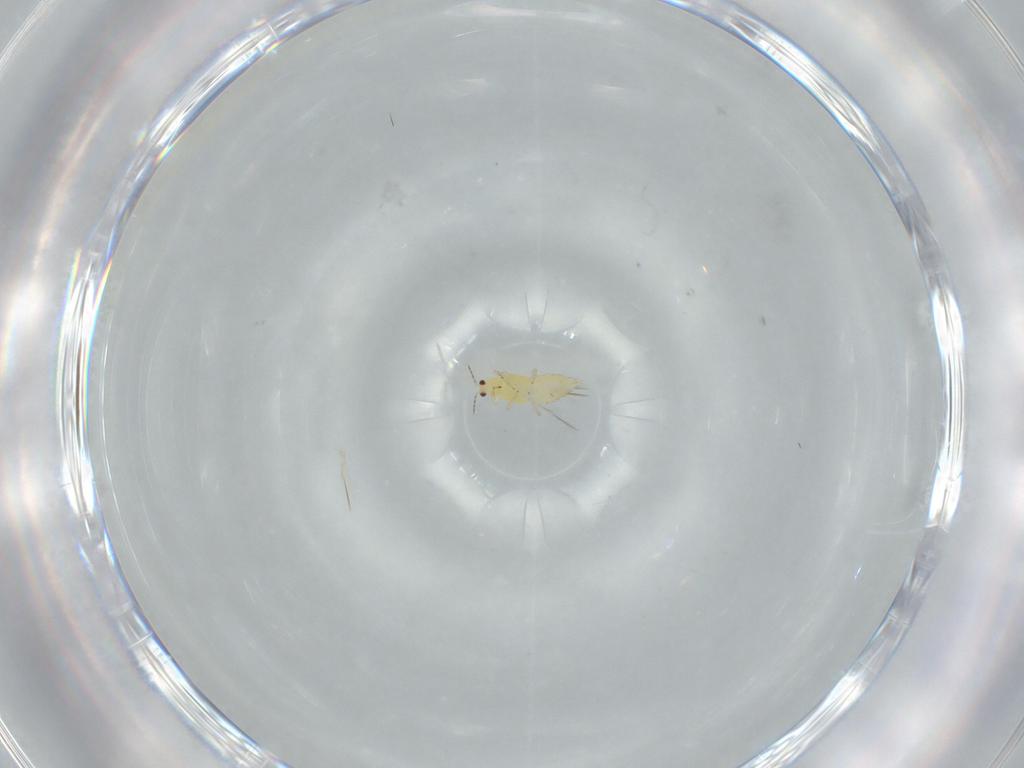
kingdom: Animalia
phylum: Arthropoda
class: Insecta
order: Thysanoptera
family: Thripidae
